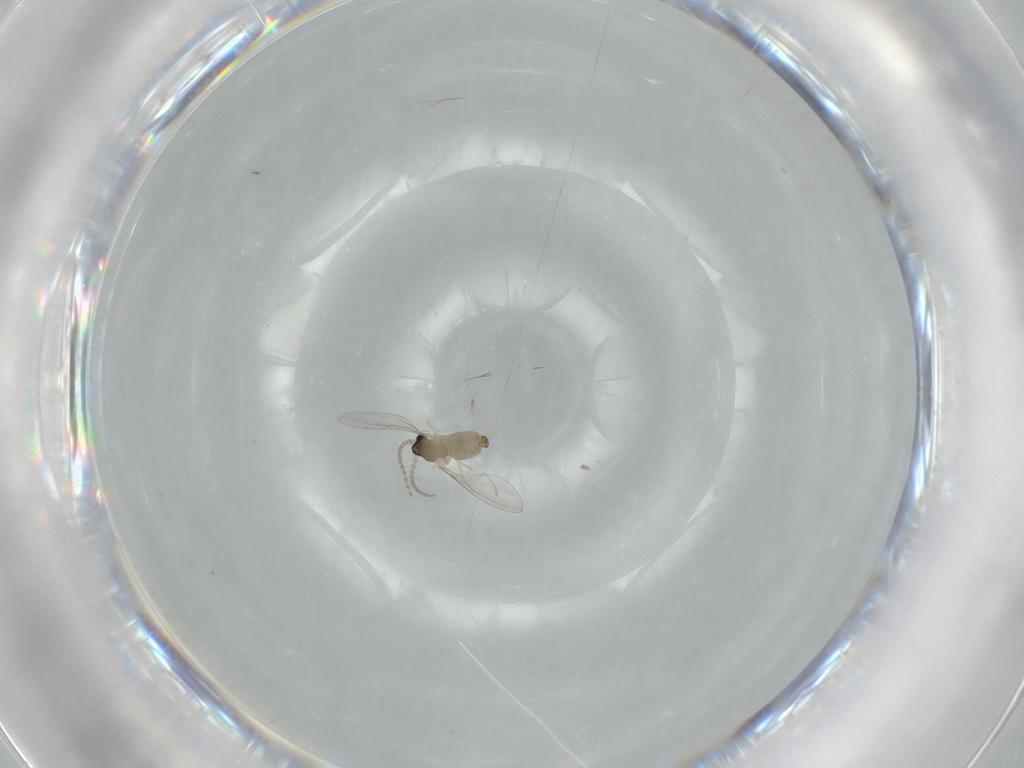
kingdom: Animalia
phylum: Arthropoda
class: Insecta
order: Diptera
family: Cecidomyiidae
